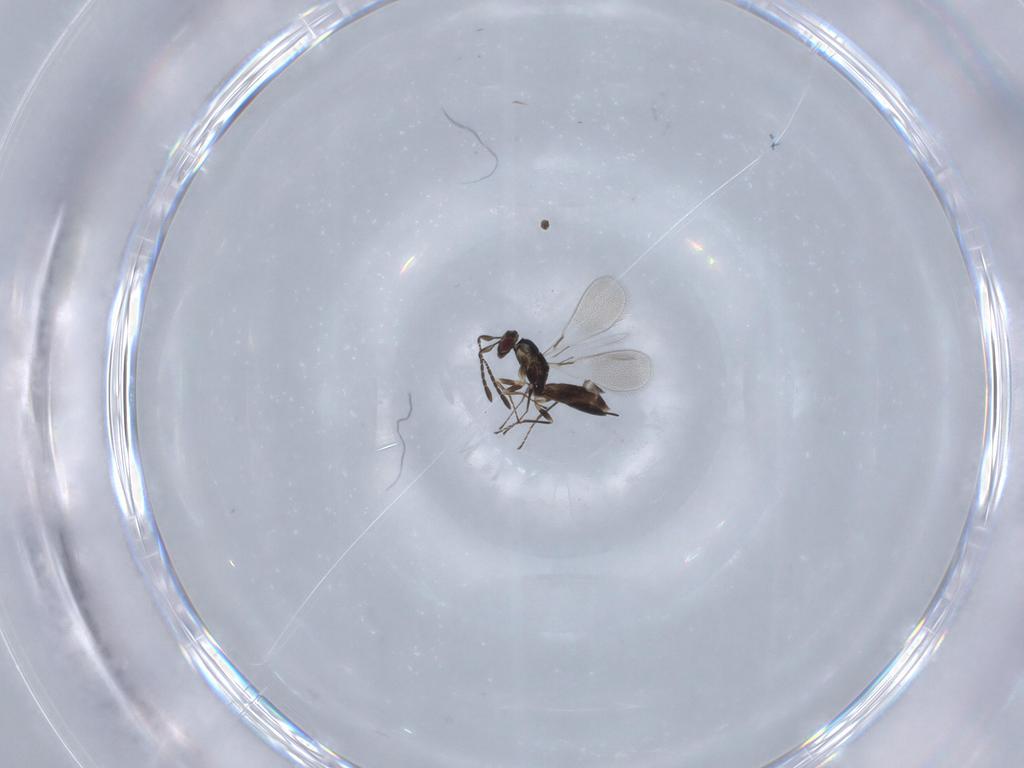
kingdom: Animalia
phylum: Arthropoda
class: Insecta
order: Hymenoptera
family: Mymaridae
